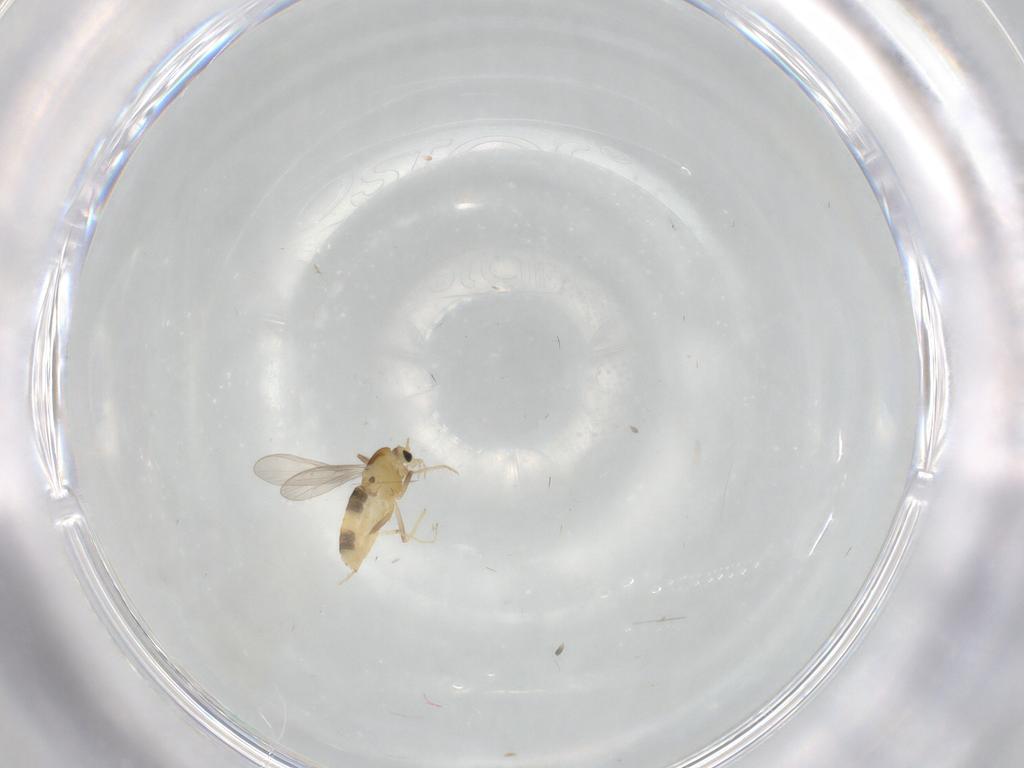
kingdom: Animalia
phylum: Arthropoda
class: Insecta
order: Diptera
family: Chironomidae
